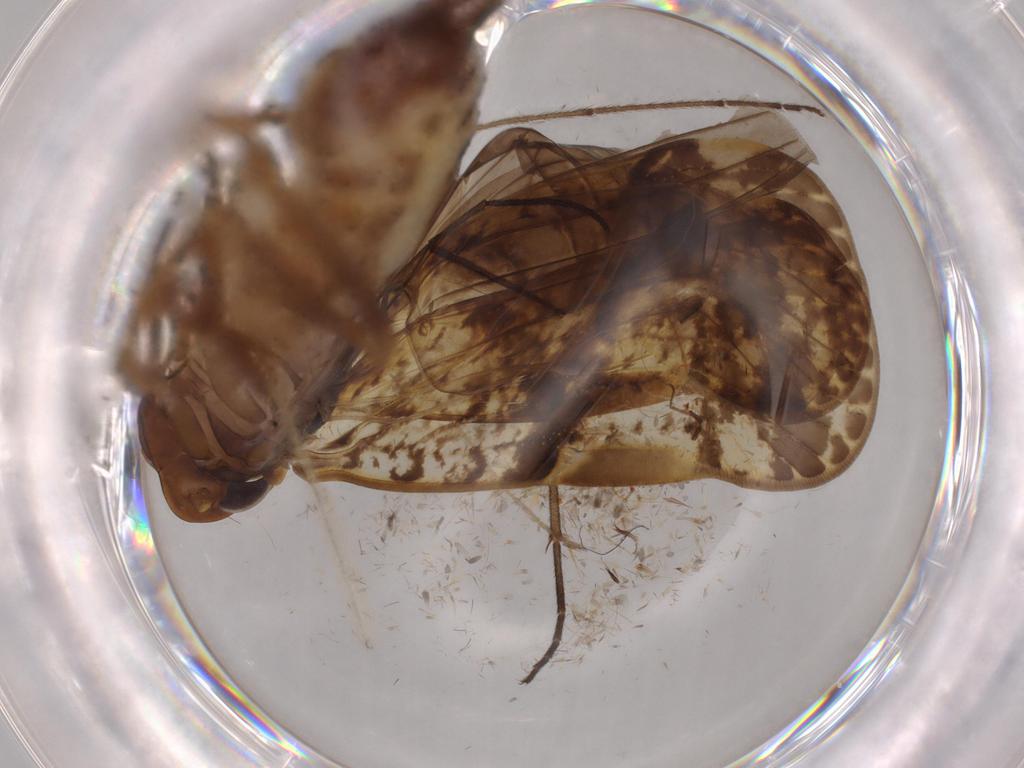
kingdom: Animalia
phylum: Arthropoda
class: Insecta
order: Hemiptera
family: Cixiidae
